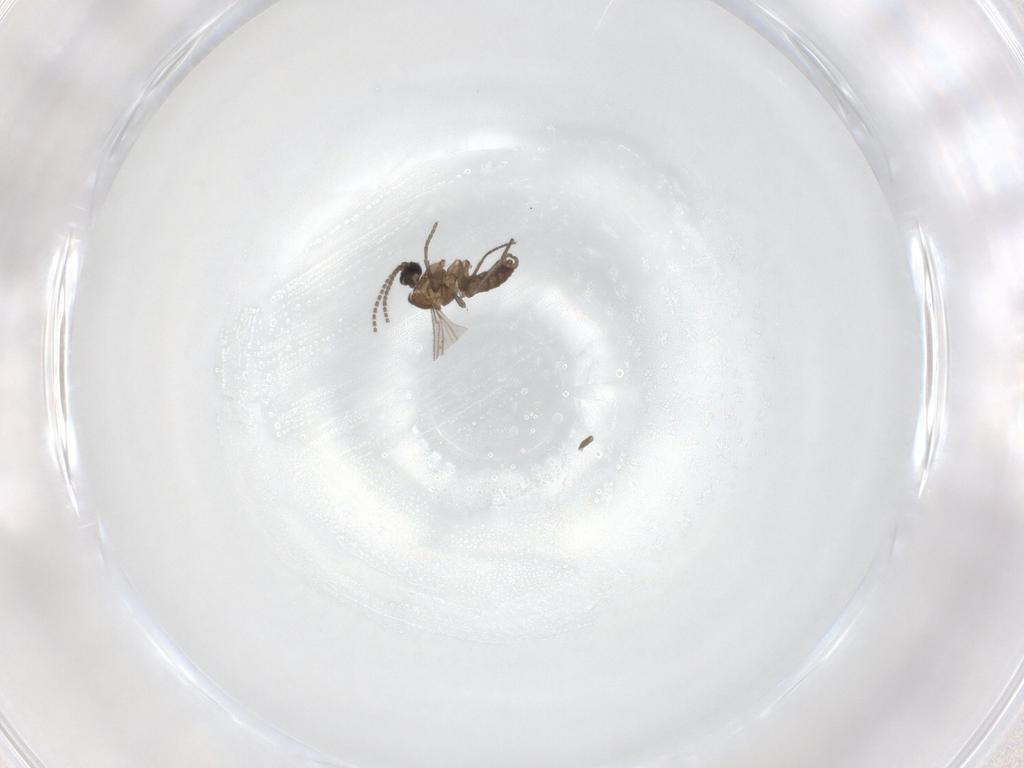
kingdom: Animalia
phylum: Arthropoda
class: Insecta
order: Diptera
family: Sciaridae
